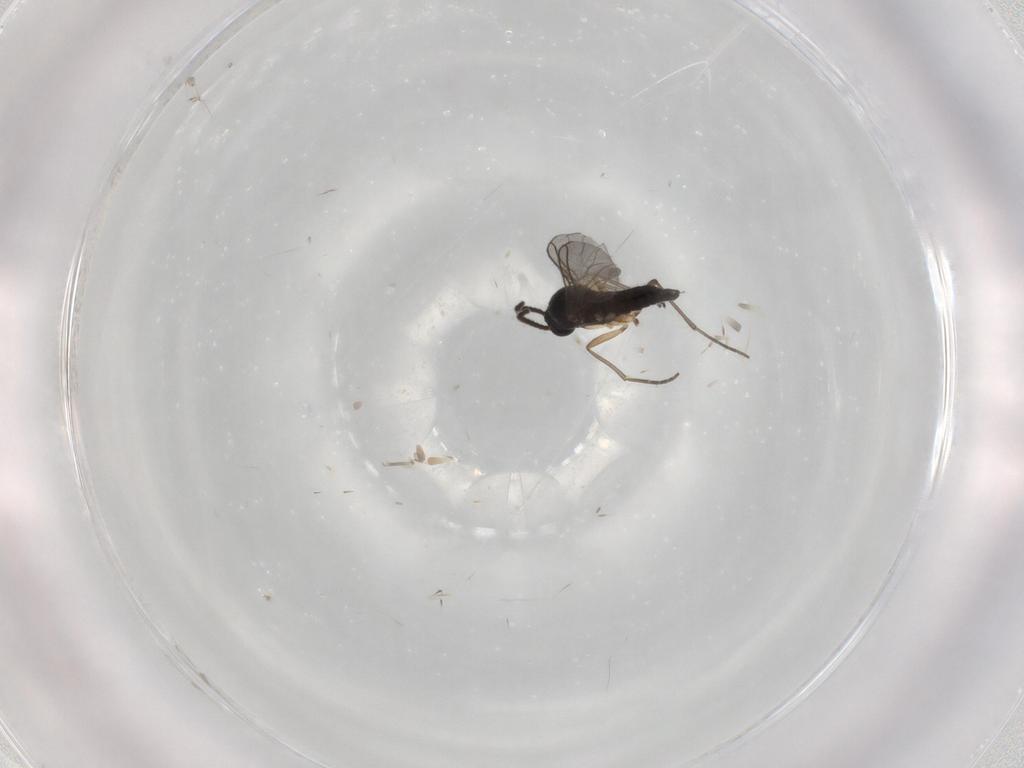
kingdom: Animalia
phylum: Arthropoda
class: Insecta
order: Diptera
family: Sciaridae
